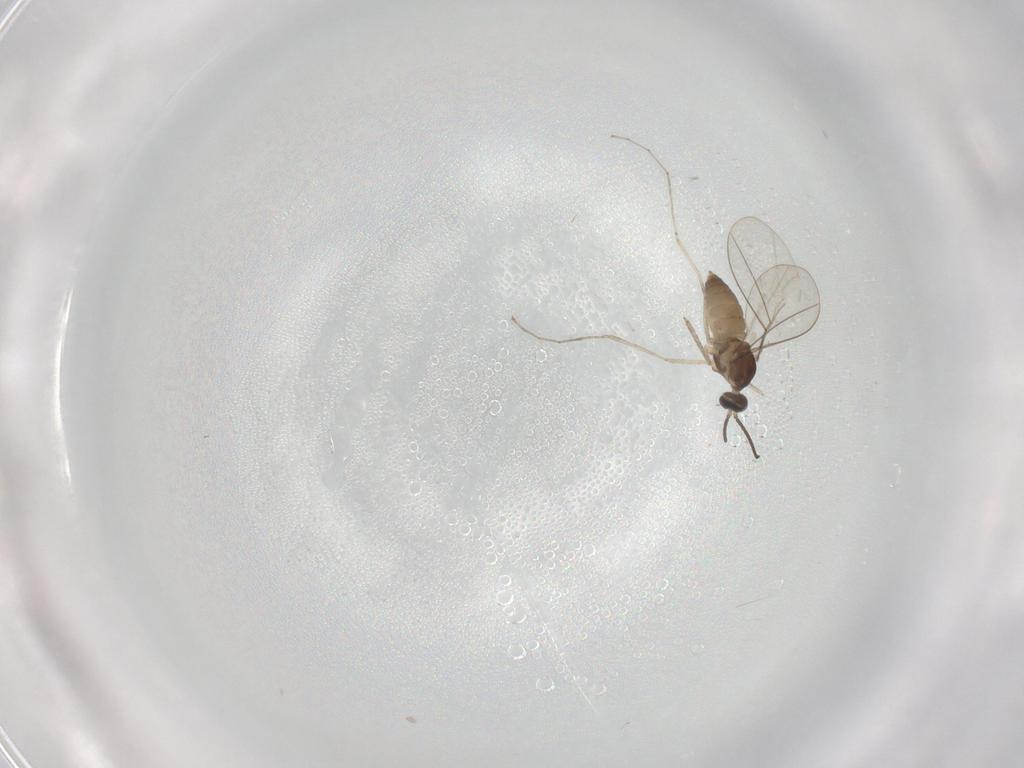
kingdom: Animalia
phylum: Arthropoda
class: Insecta
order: Diptera
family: Cecidomyiidae
